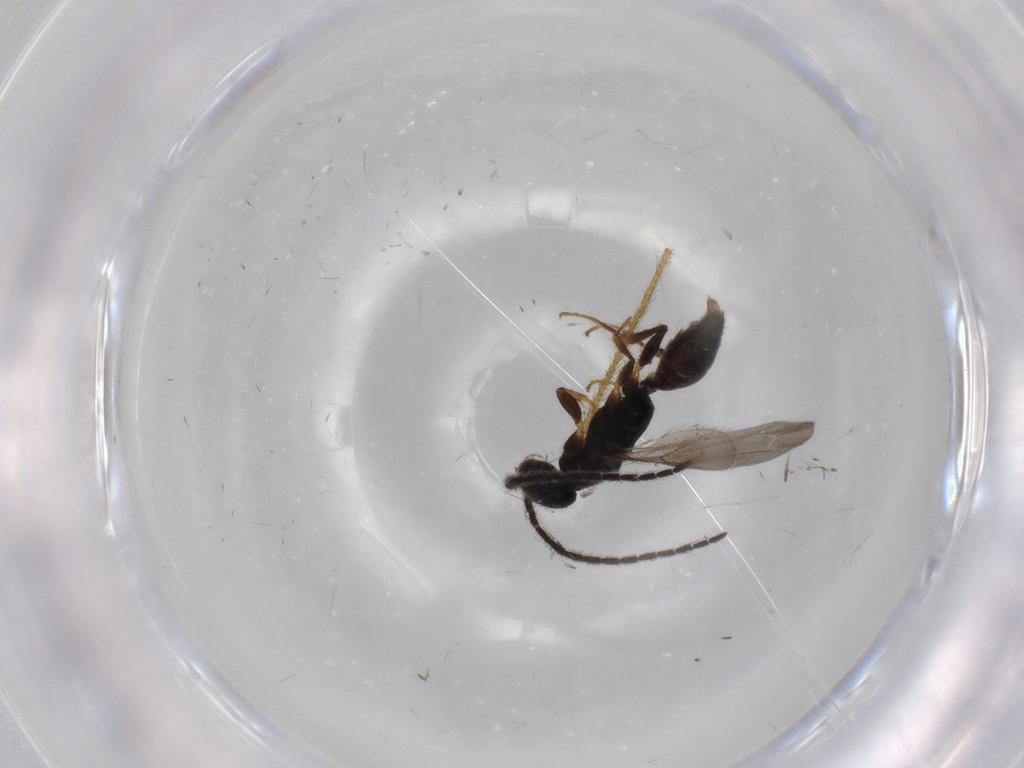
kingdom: Animalia
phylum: Arthropoda
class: Insecta
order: Hymenoptera
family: Bethylidae
